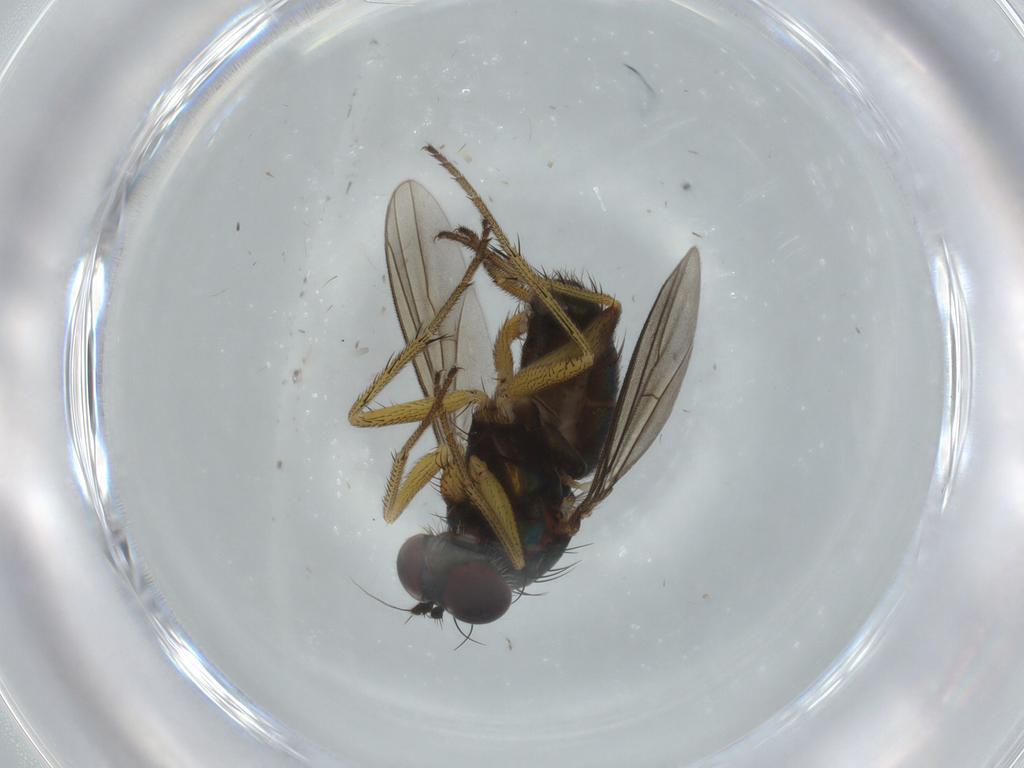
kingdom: Animalia
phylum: Arthropoda
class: Insecta
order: Diptera
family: Dolichopodidae
